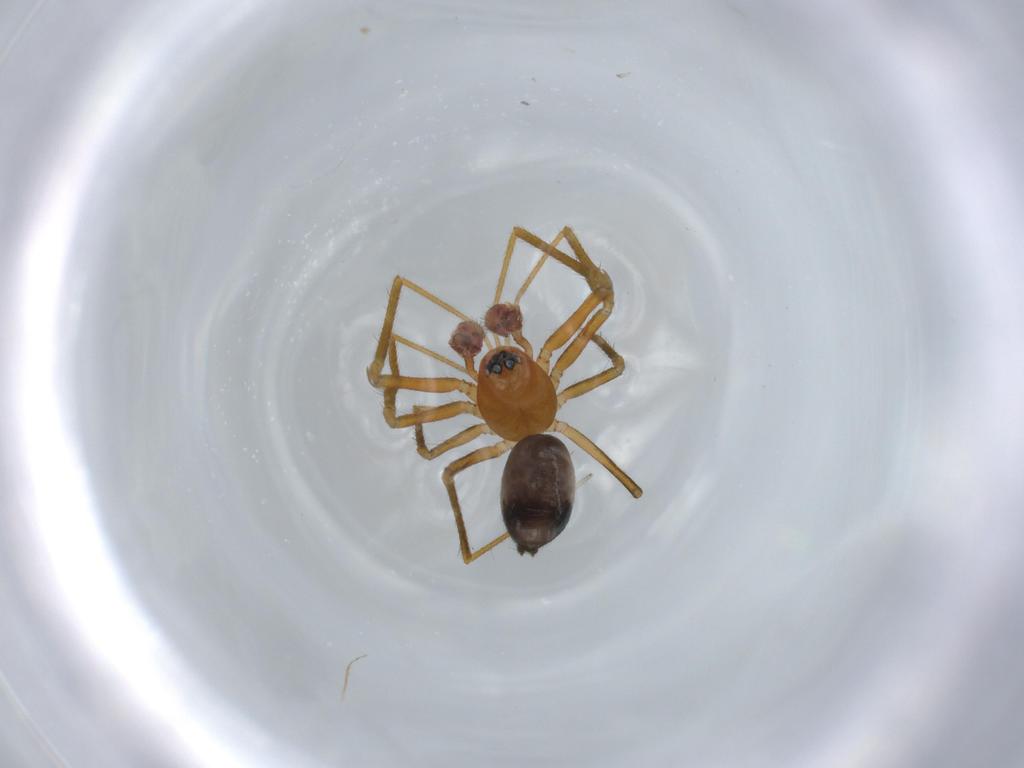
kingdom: Animalia
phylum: Arthropoda
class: Arachnida
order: Araneae
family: Linyphiidae
